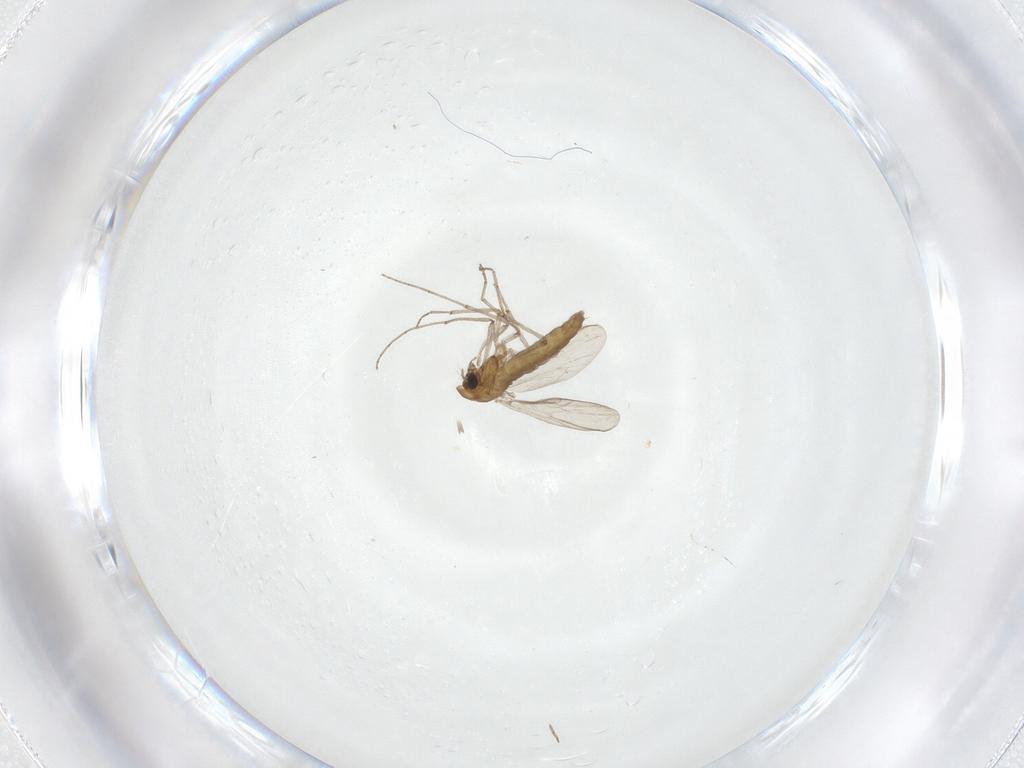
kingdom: Animalia
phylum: Arthropoda
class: Insecta
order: Diptera
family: Chironomidae
